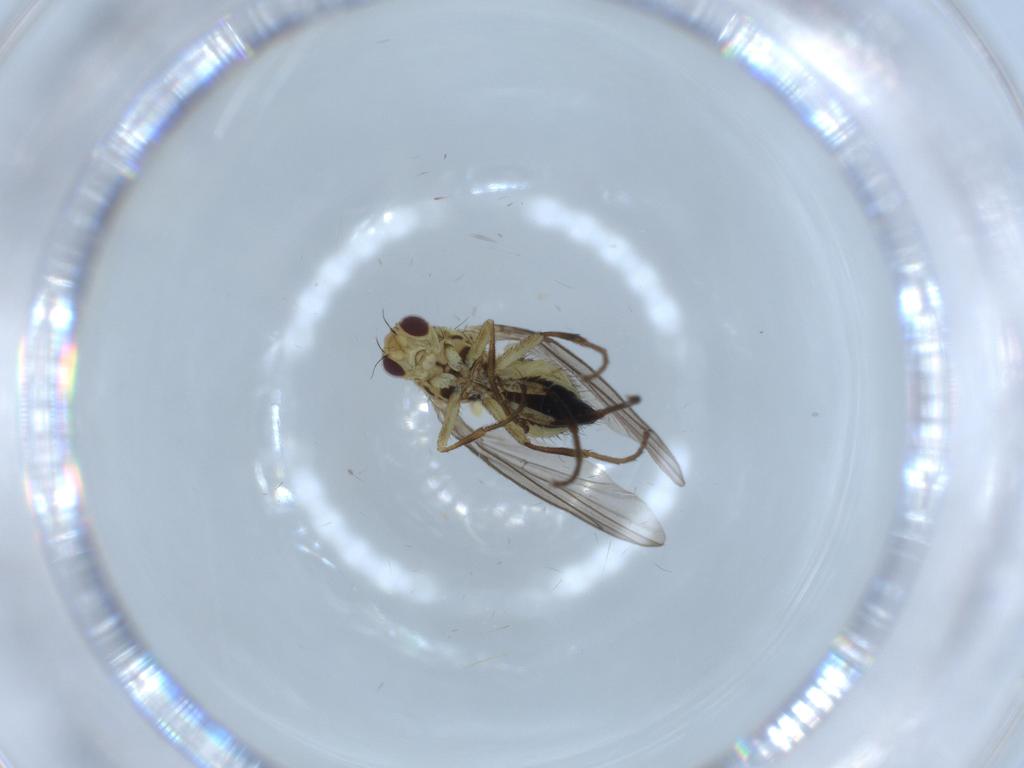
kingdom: Animalia
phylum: Arthropoda
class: Insecta
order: Diptera
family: Agromyzidae
